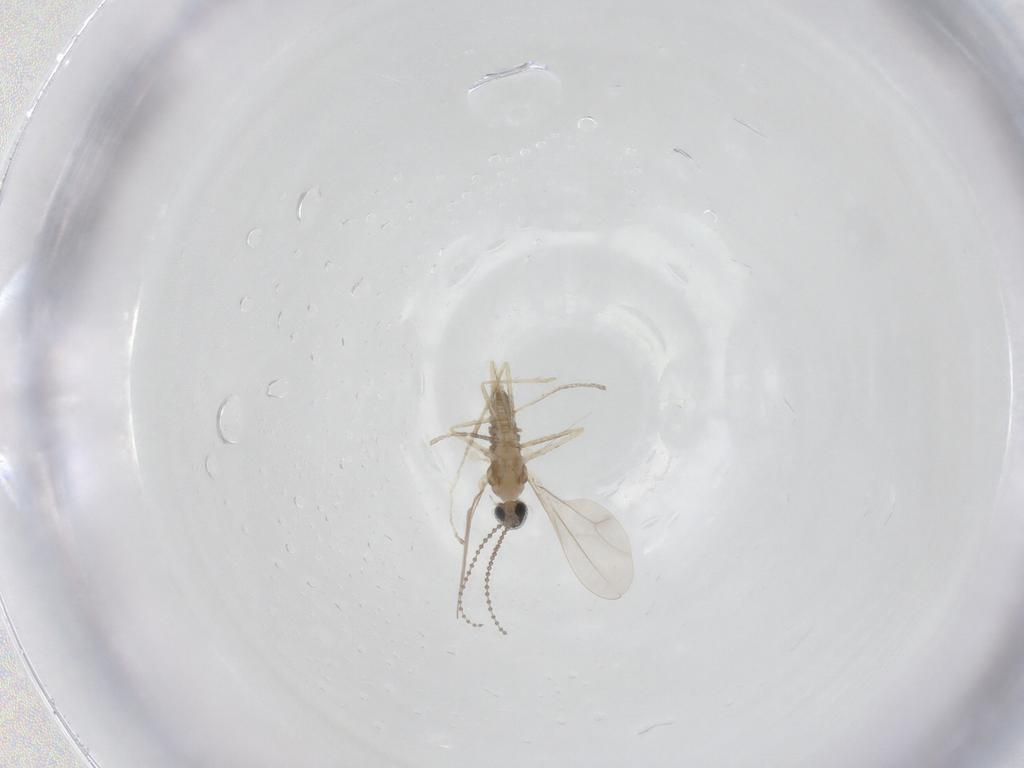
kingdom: Animalia
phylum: Arthropoda
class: Insecta
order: Diptera
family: Cecidomyiidae
